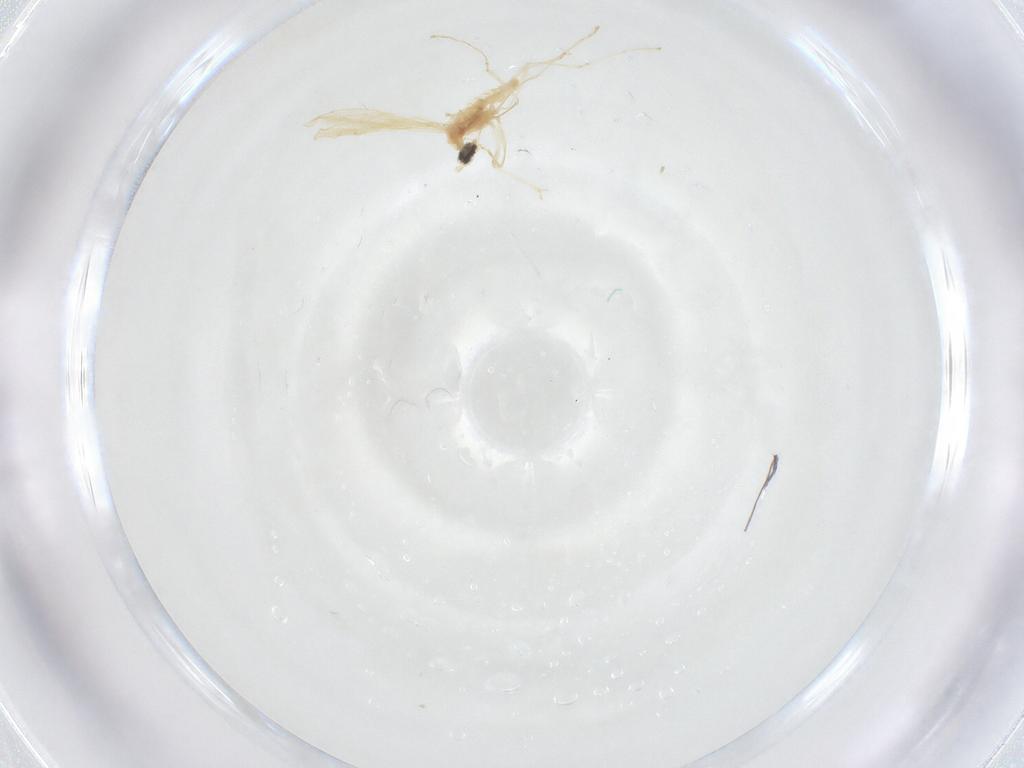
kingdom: Animalia
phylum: Arthropoda
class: Insecta
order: Diptera
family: Cecidomyiidae
